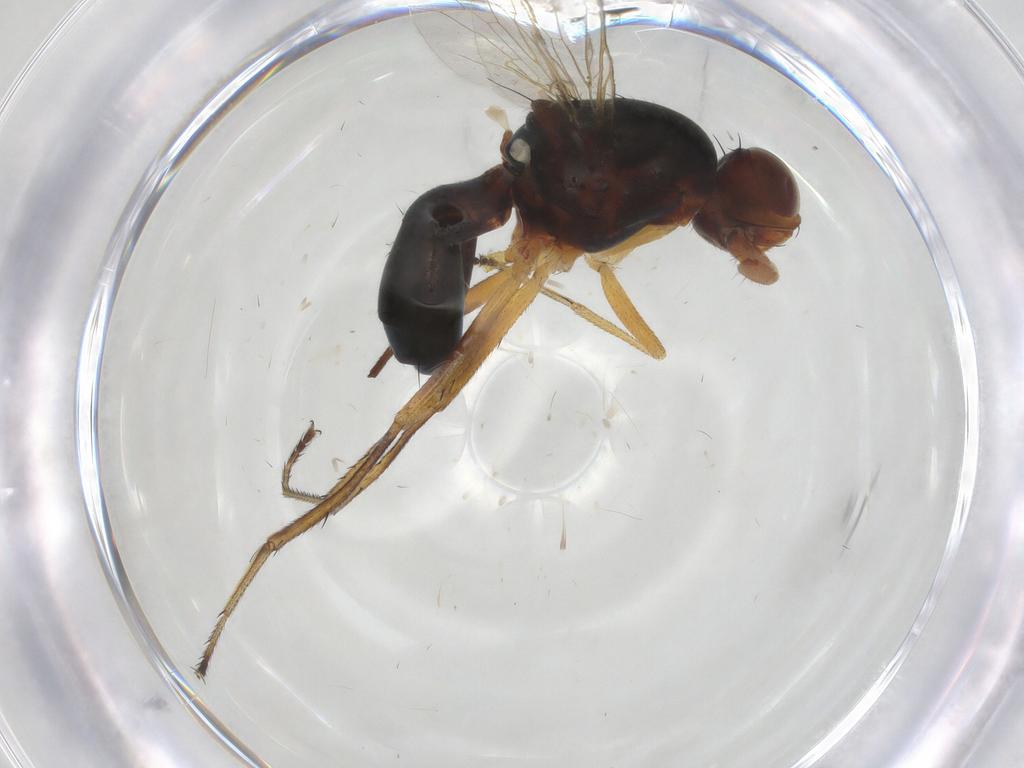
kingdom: Animalia
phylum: Arthropoda
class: Insecta
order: Diptera
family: Sepsidae
